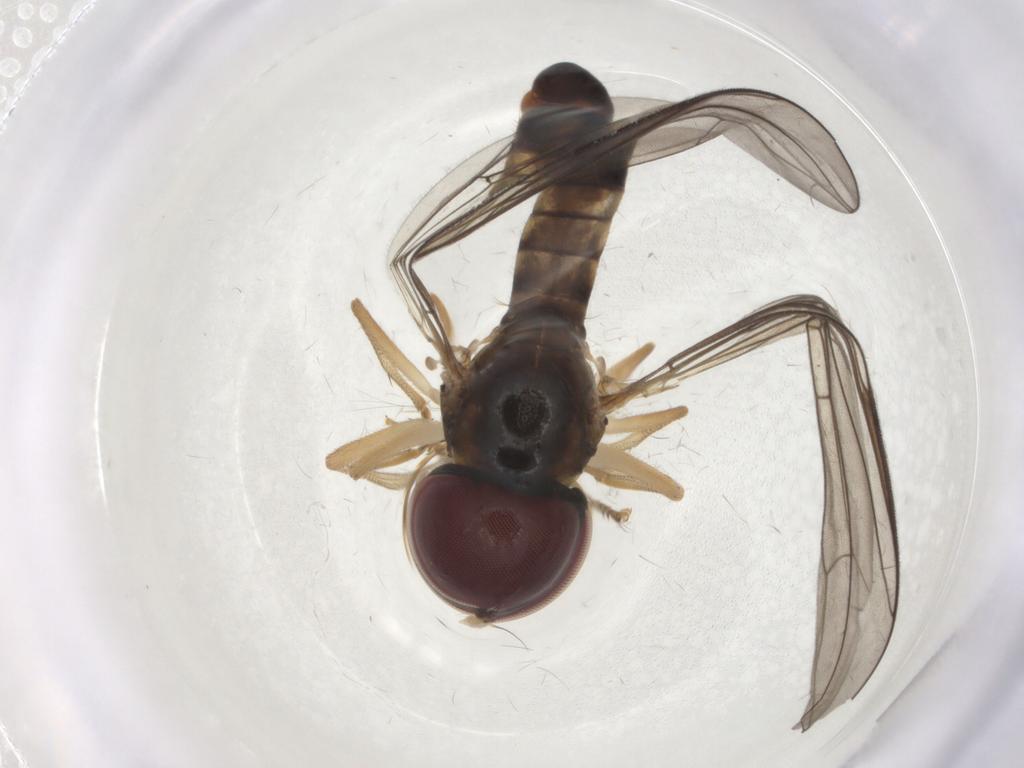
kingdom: Animalia
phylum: Arthropoda
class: Insecta
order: Diptera
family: Pipunculidae
